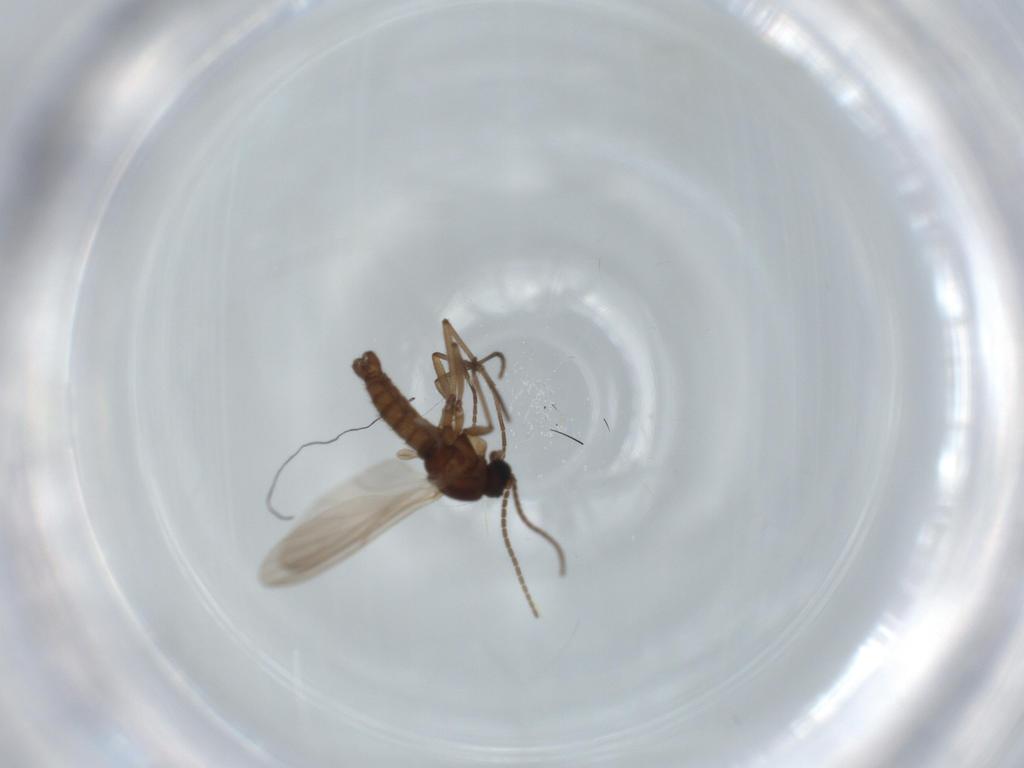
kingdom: Animalia
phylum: Arthropoda
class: Insecta
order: Diptera
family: Sciaridae
